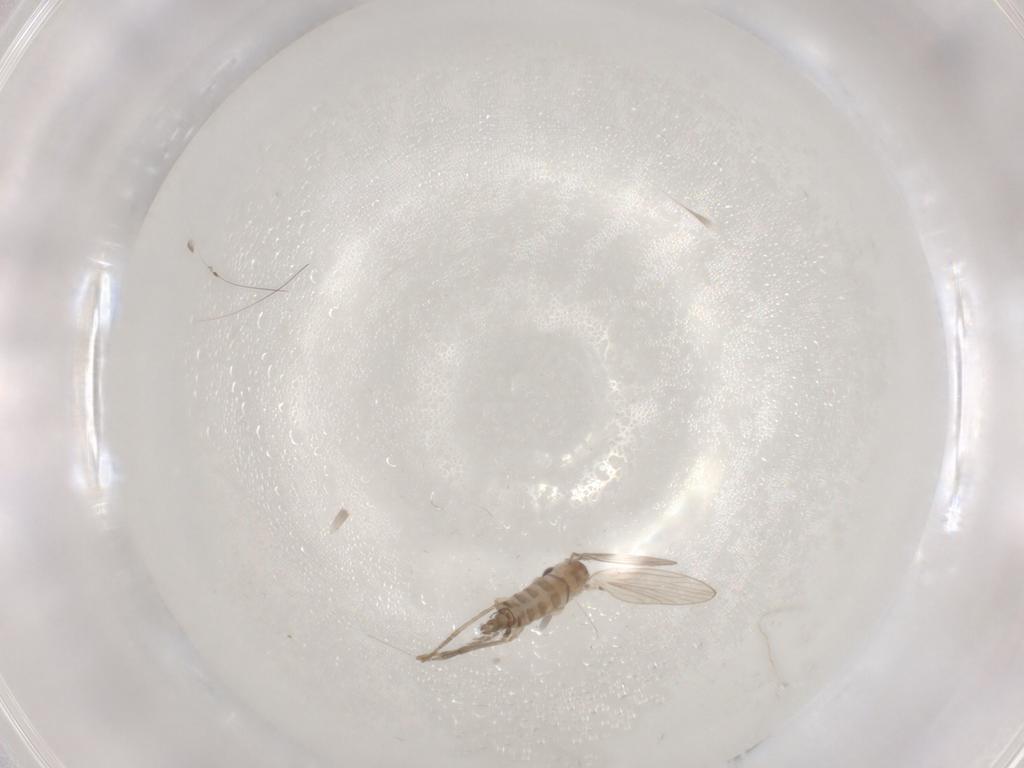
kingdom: Animalia
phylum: Arthropoda
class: Insecta
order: Diptera
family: Psychodidae
